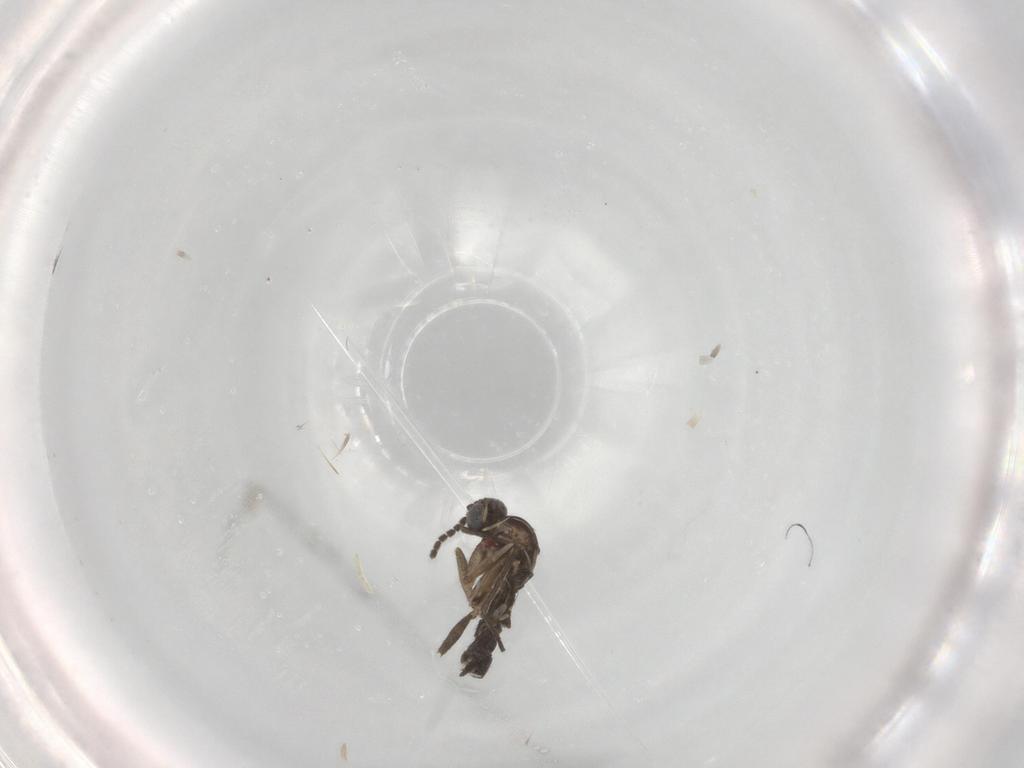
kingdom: Animalia
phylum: Arthropoda
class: Insecta
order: Diptera
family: Sciaridae
